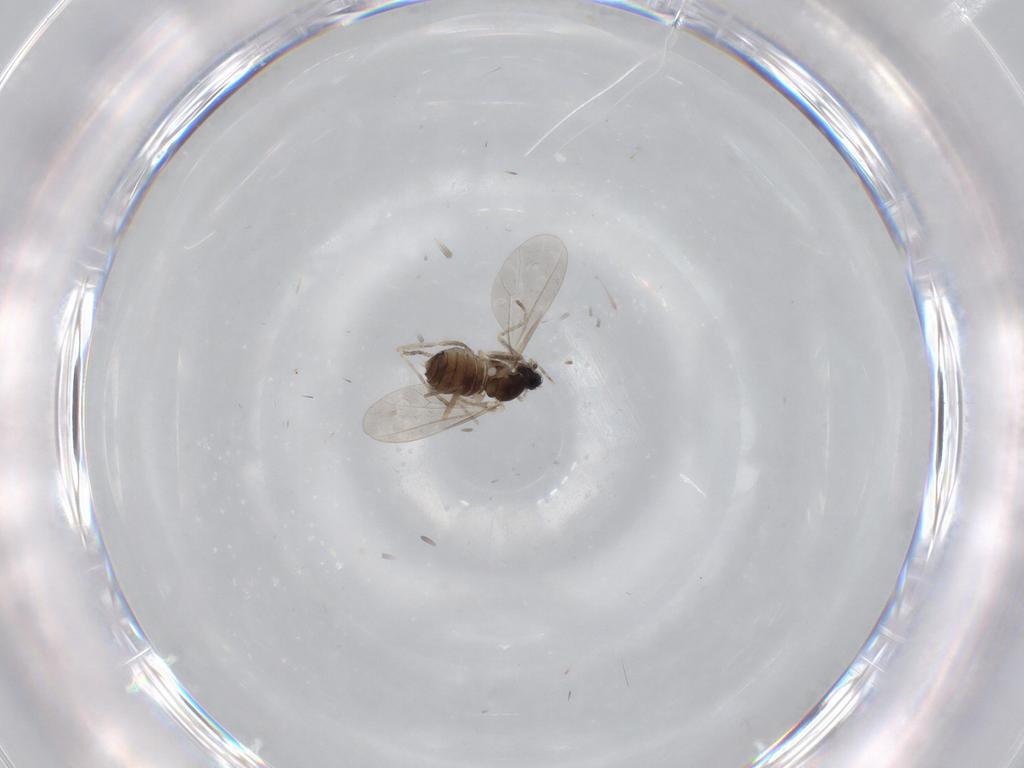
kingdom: Animalia
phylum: Arthropoda
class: Insecta
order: Diptera
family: Cecidomyiidae
